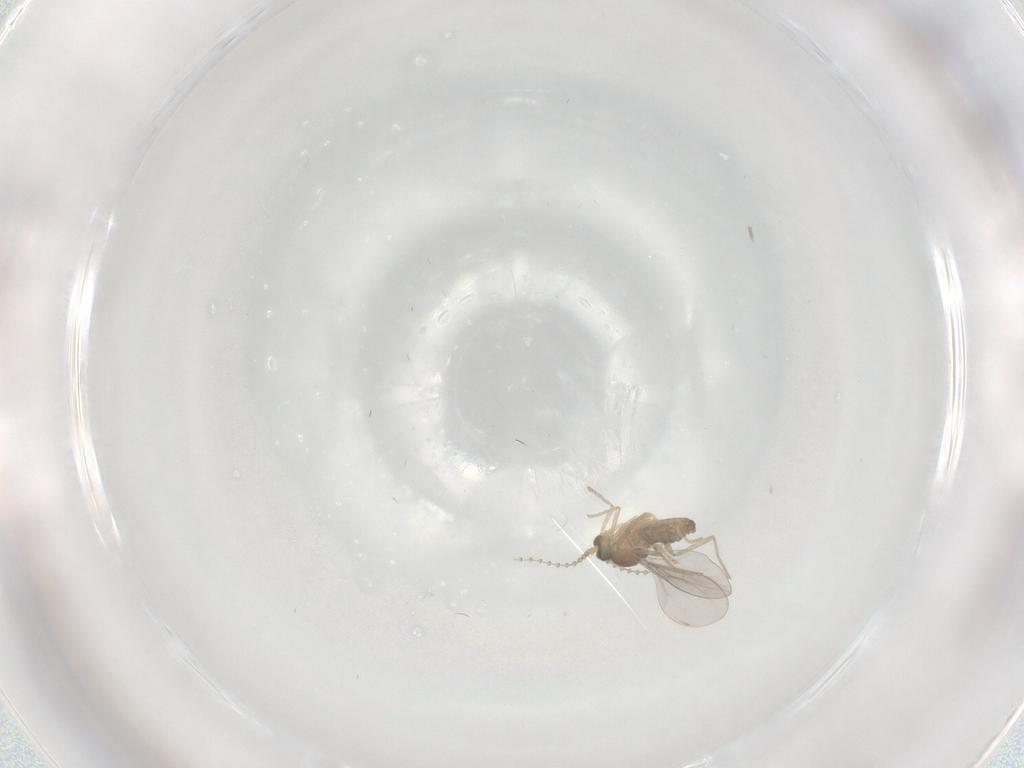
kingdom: Animalia
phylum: Arthropoda
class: Insecta
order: Diptera
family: Cecidomyiidae
